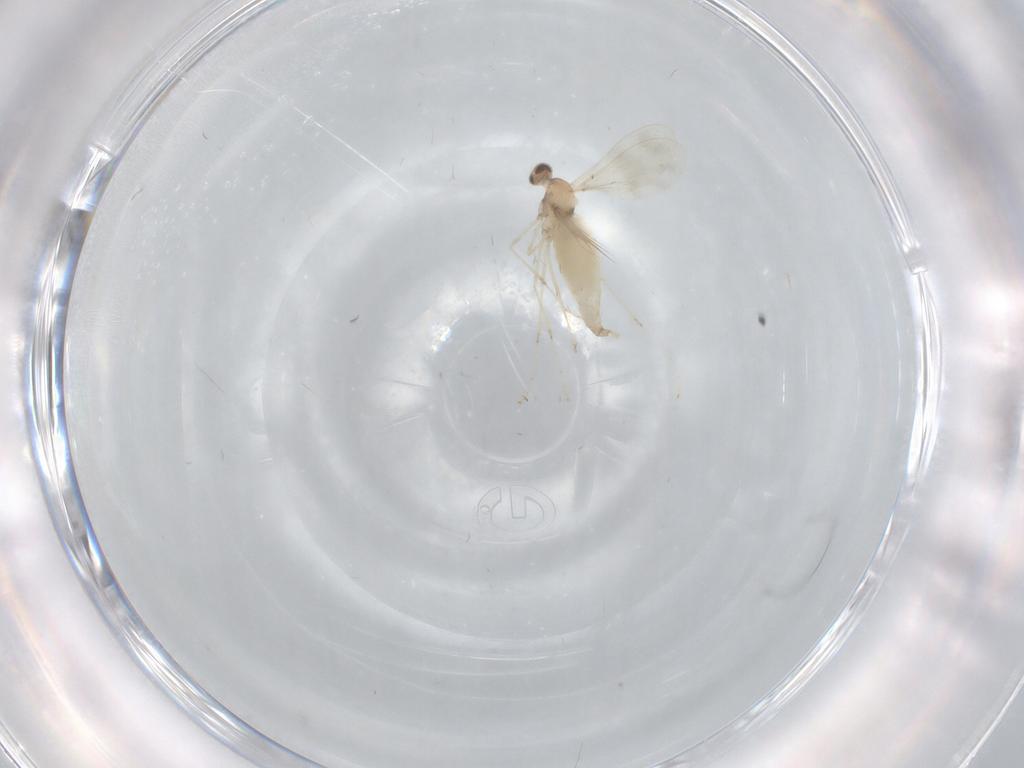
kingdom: Animalia
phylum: Arthropoda
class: Insecta
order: Diptera
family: Cecidomyiidae
